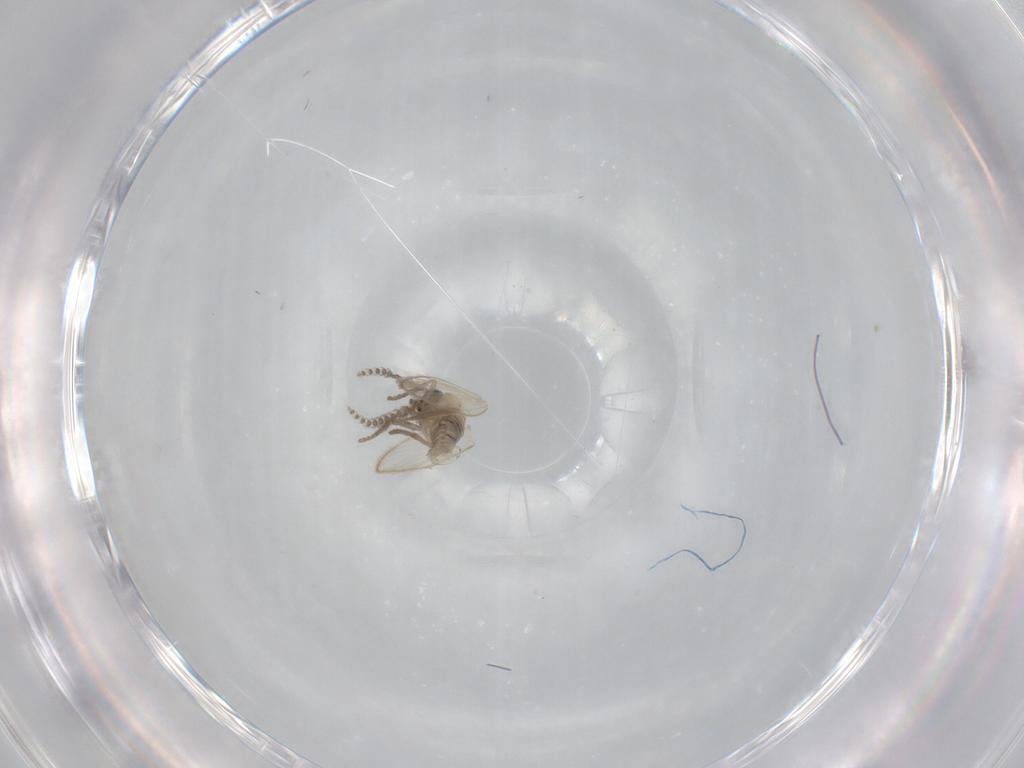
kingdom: Animalia
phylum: Arthropoda
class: Insecta
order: Diptera
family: Psychodidae
